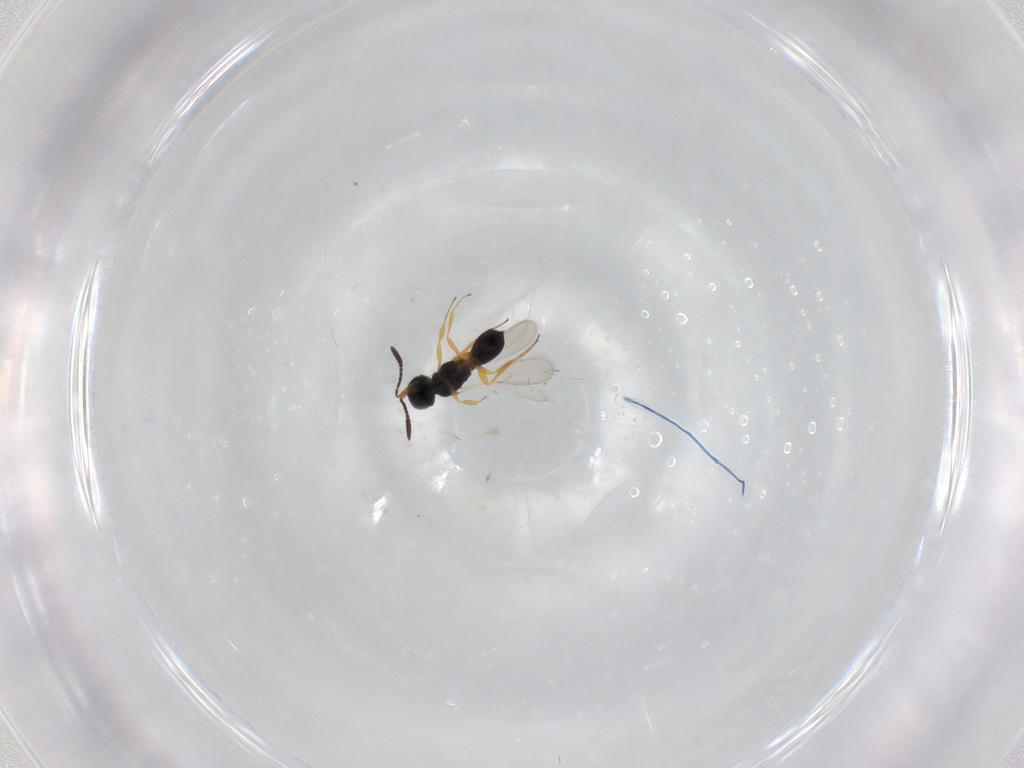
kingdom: Animalia
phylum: Arthropoda
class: Insecta
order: Hymenoptera
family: Scelionidae
